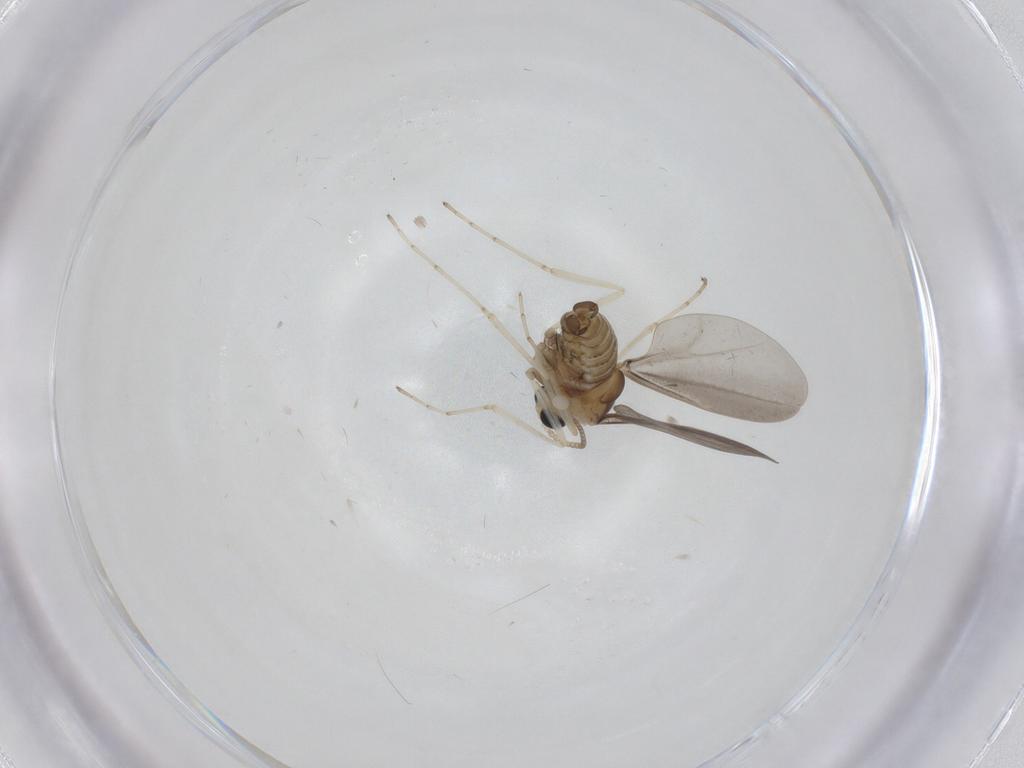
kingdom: Animalia
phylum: Arthropoda
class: Insecta
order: Diptera
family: Cecidomyiidae
